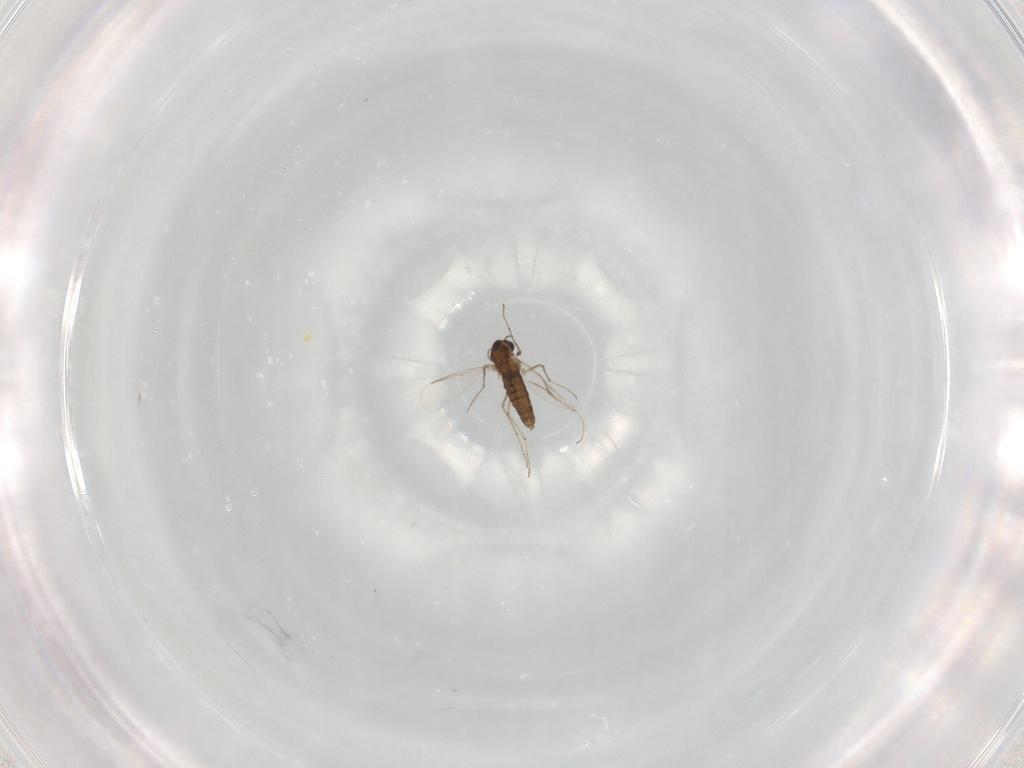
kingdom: Animalia
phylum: Arthropoda
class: Insecta
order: Diptera
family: Chironomidae
